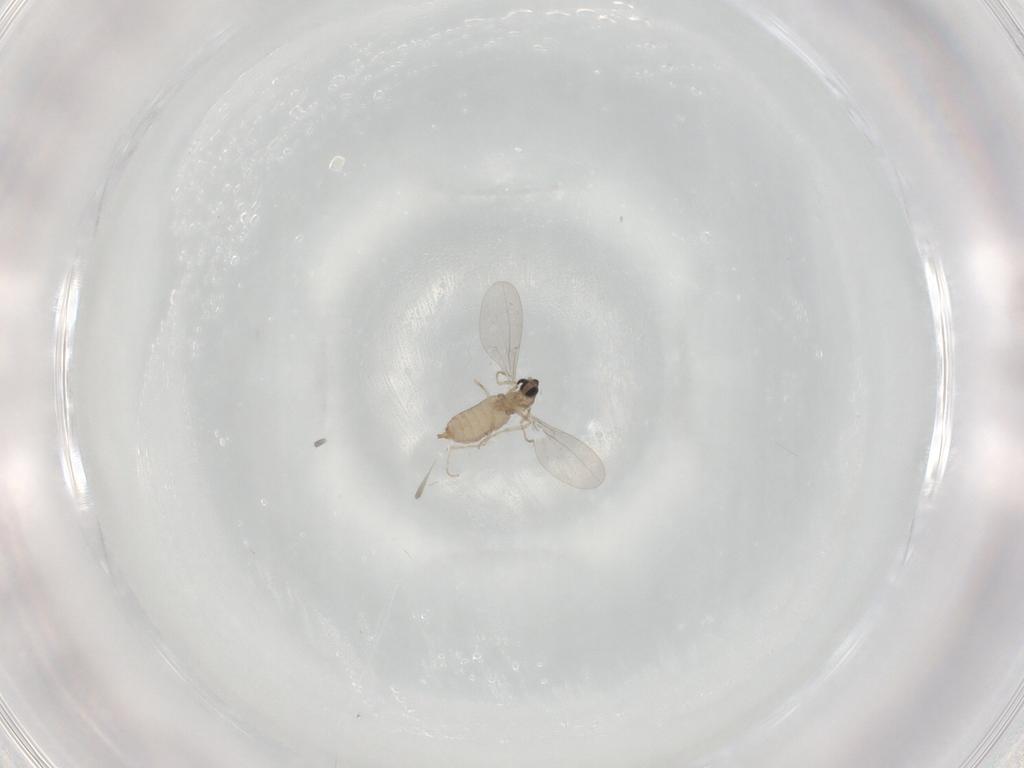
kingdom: Animalia
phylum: Arthropoda
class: Insecta
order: Diptera
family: Cecidomyiidae
